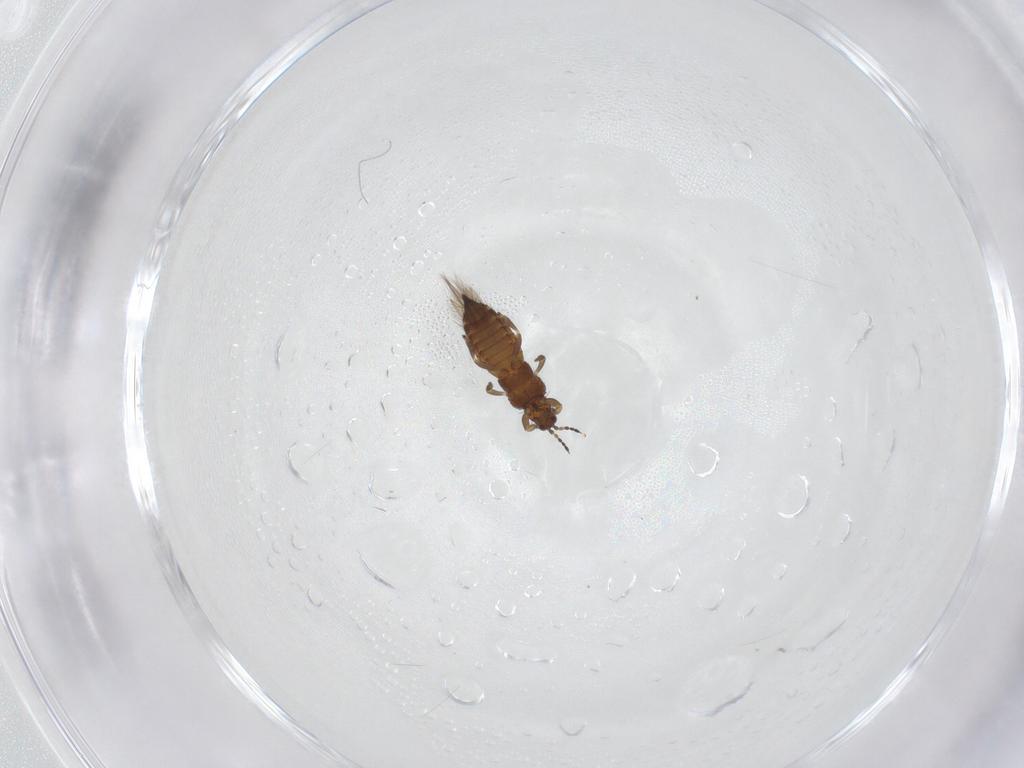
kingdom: Animalia
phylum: Arthropoda
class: Insecta
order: Thysanoptera
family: Thripidae
